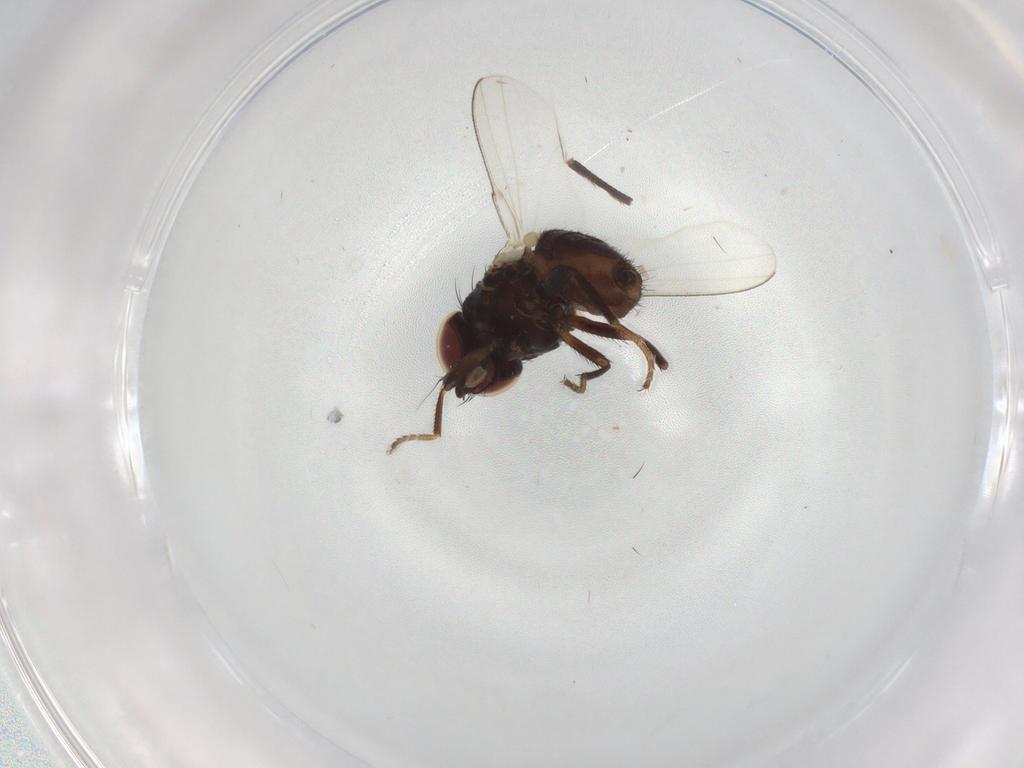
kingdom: Animalia
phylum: Arthropoda
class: Insecta
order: Diptera
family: Milichiidae
